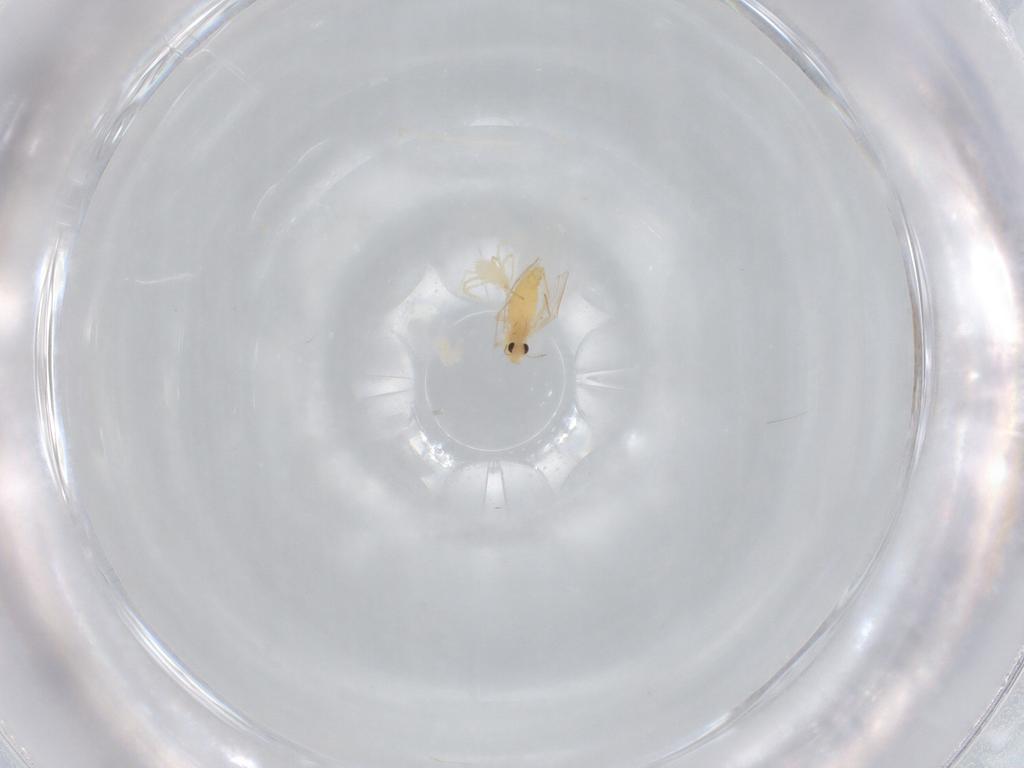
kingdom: Animalia
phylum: Arthropoda
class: Insecta
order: Diptera
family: Chironomidae
